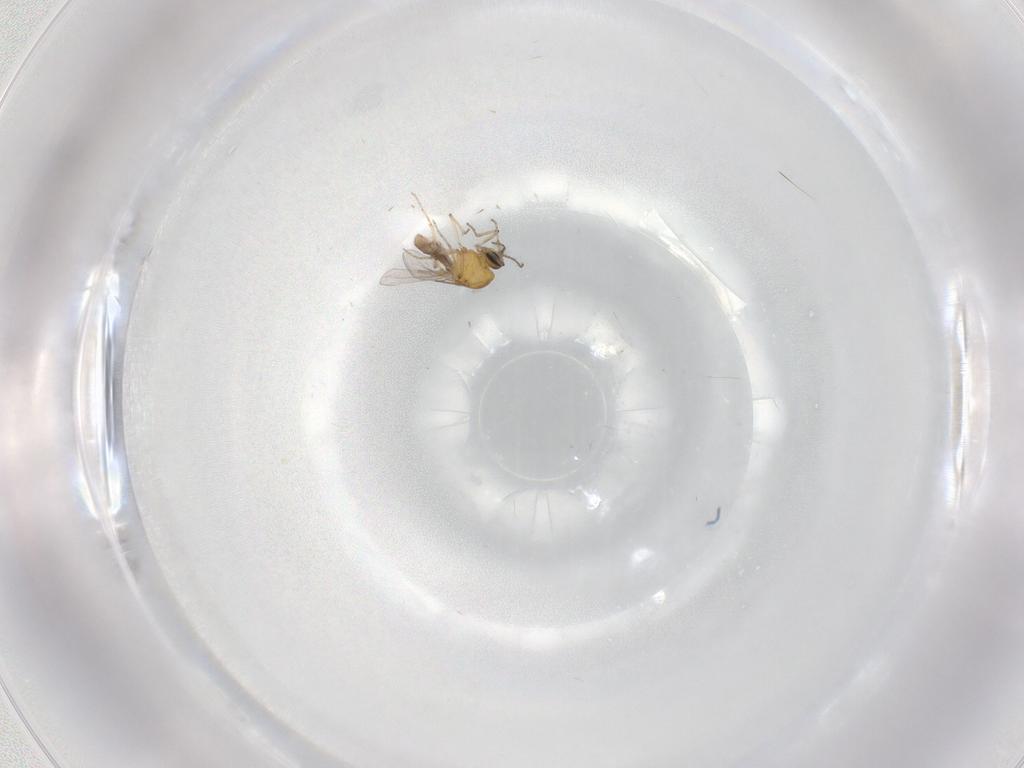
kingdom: Animalia
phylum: Arthropoda
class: Insecta
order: Diptera
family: Ceratopogonidae
